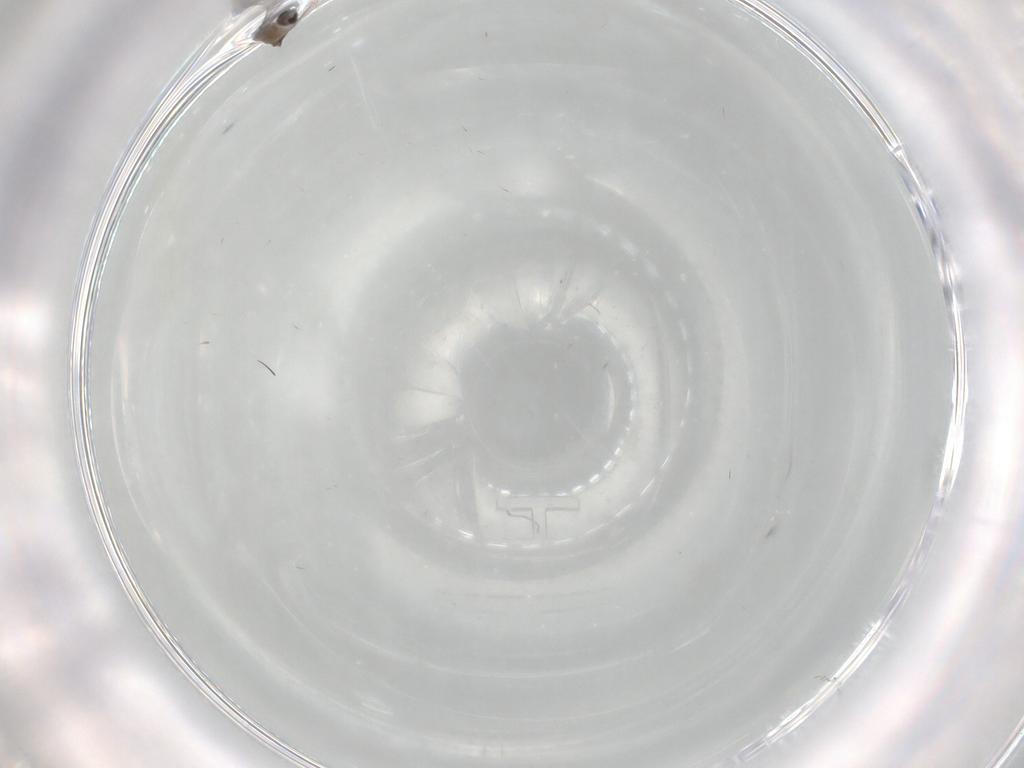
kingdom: Animalia
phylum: Arthropoda
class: Insecta
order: Diptera
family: Cecidomyiidae
